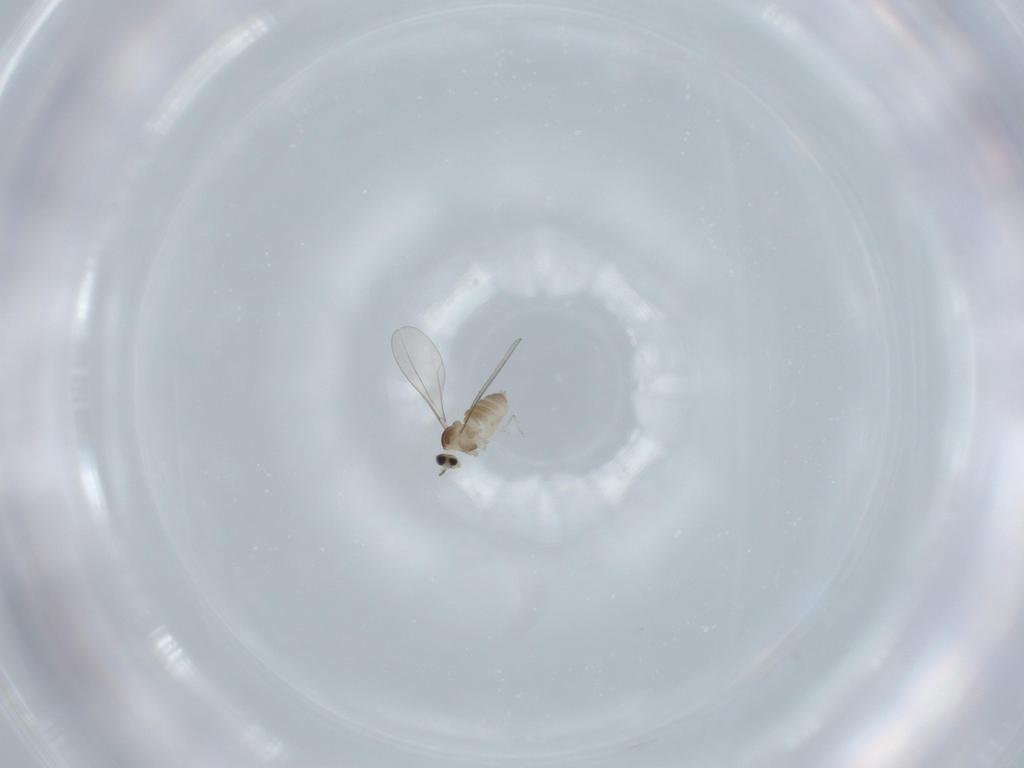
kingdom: Animalia
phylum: Arthropoda
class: Insecta
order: Diptera
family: Cecidomyiidae
